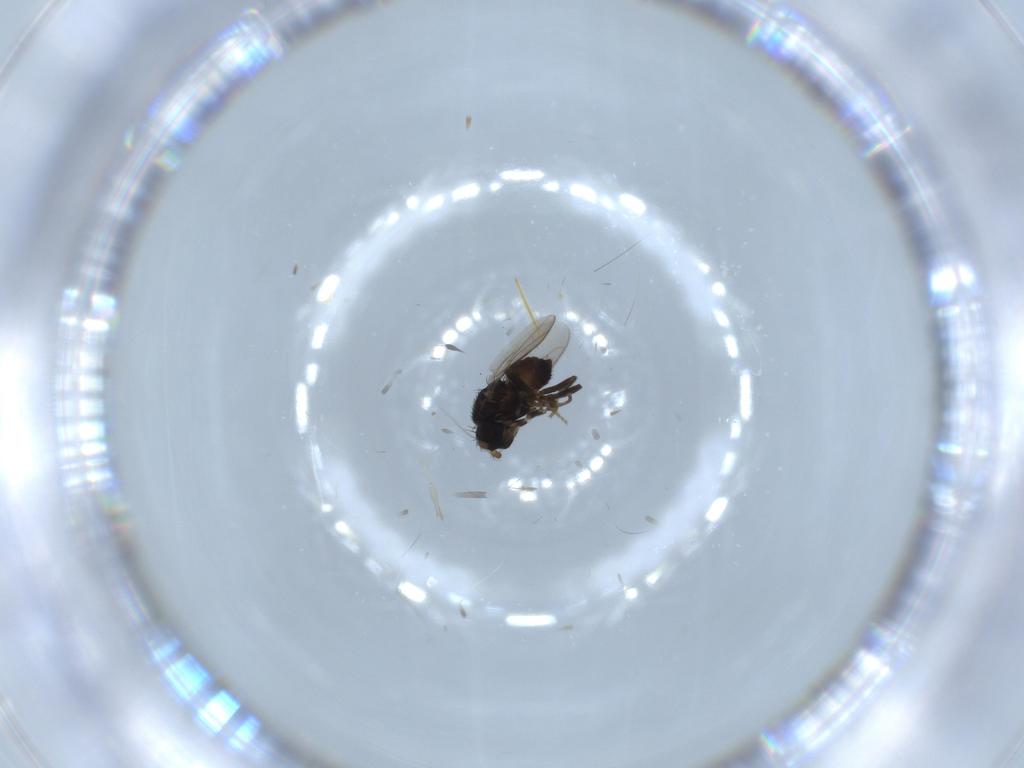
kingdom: Animalia
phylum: Arthropoda
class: Insecta
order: Diptera
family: Sphaeroceridae
